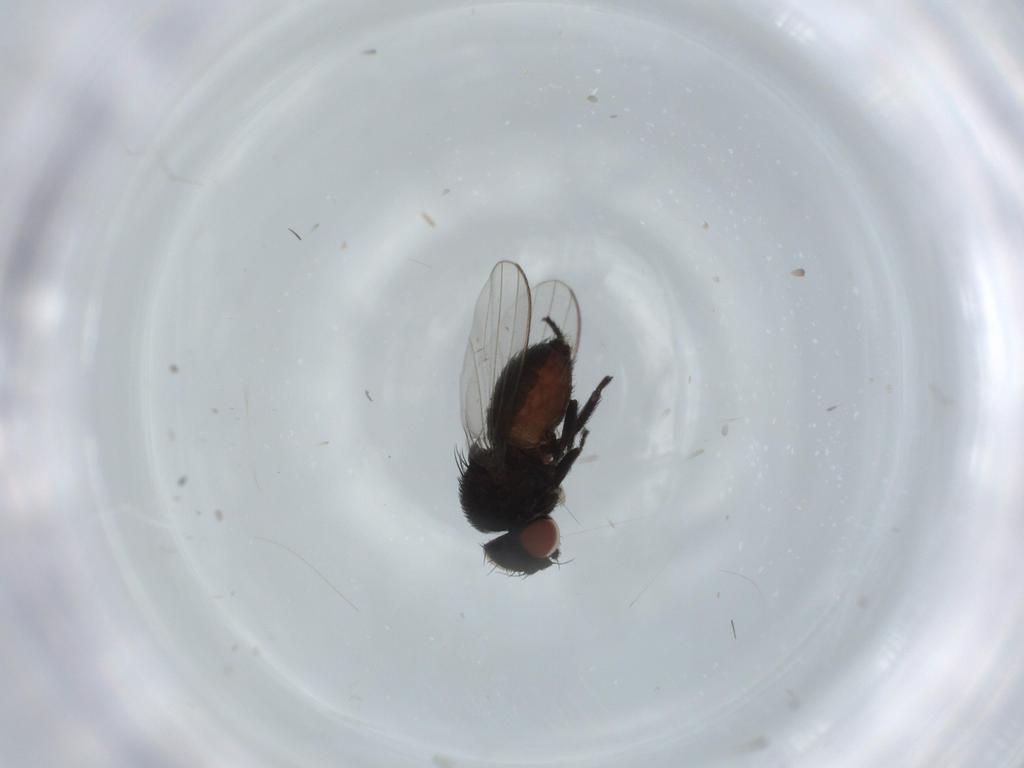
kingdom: Animalia
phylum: Arthropoda
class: Insecta
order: Diptera
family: Milichiidae
